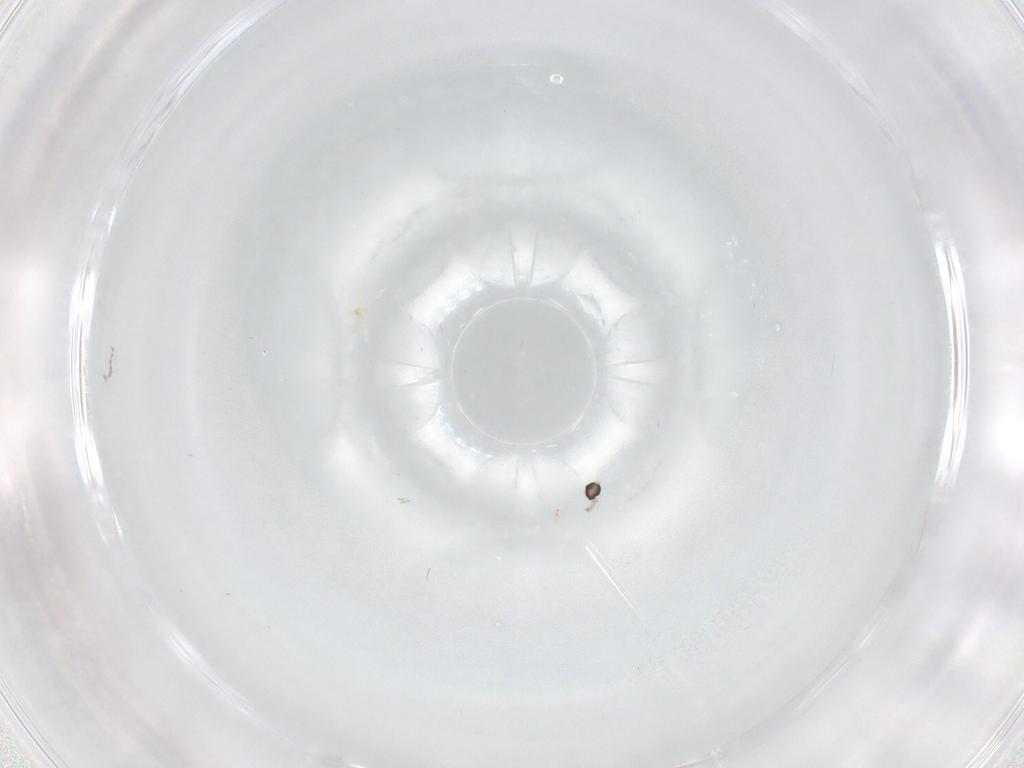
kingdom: Animalia
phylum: Arthropoda
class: Insecta
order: Diptera
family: Cecidomyiidae
